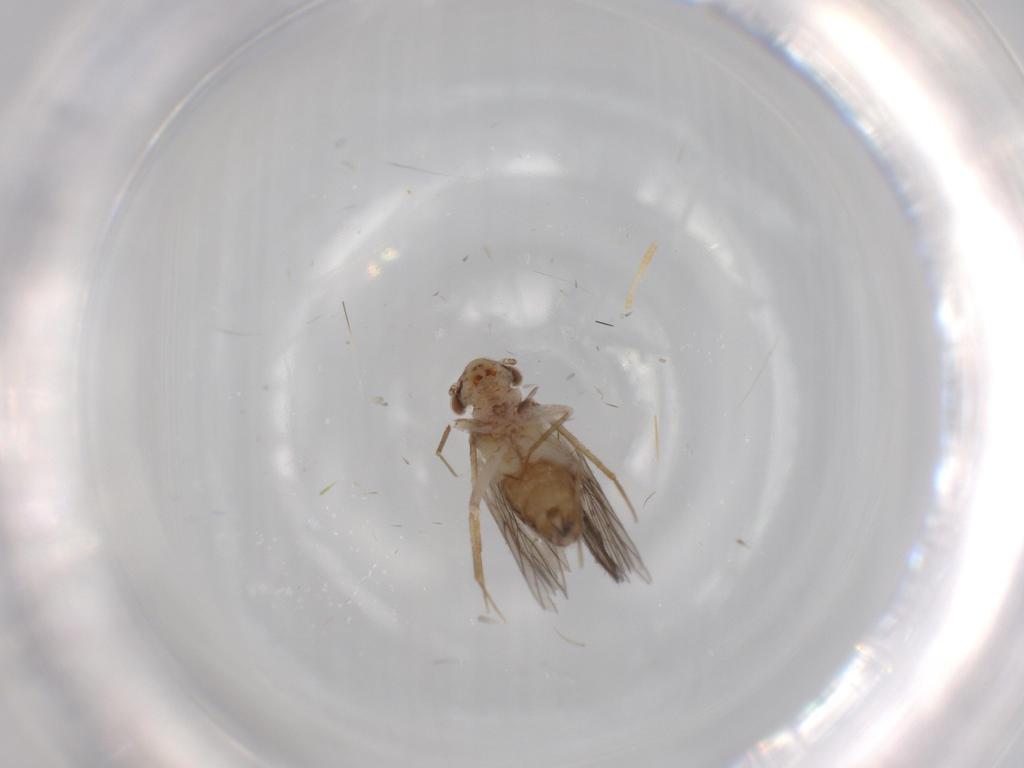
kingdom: Animalia
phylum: Arthropoda
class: Insecta
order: Psocodea
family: Lepidopsocidae
